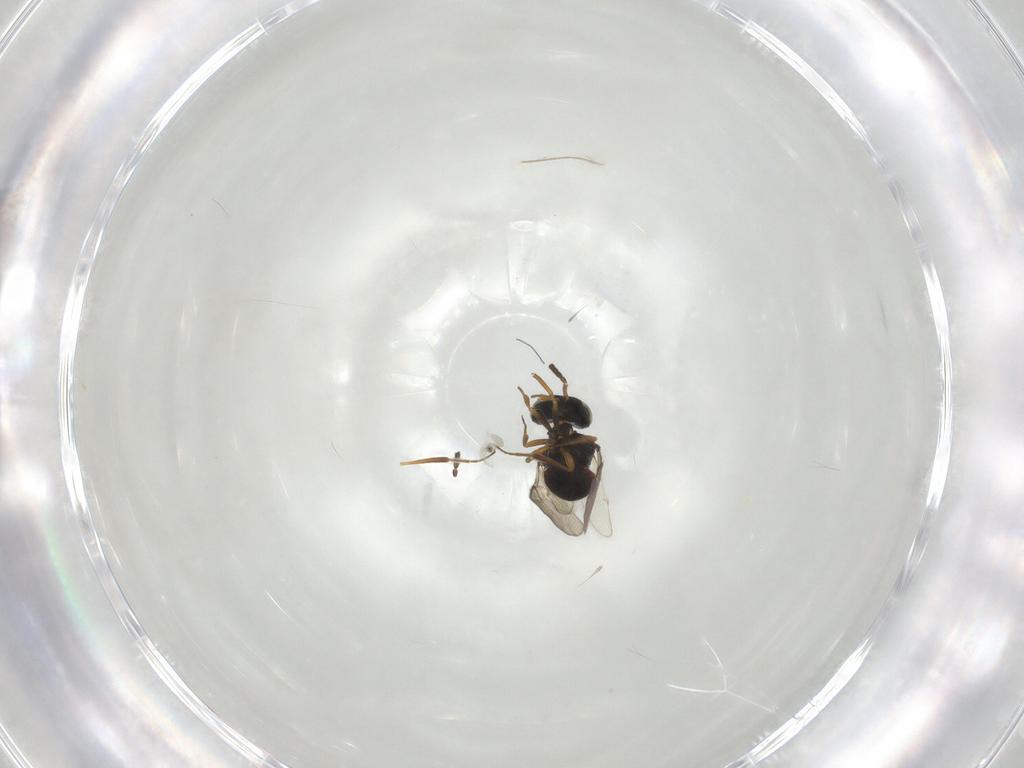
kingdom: Animalia
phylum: Arthropoda
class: Insecta
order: Hymenoptera
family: Scelionidae
